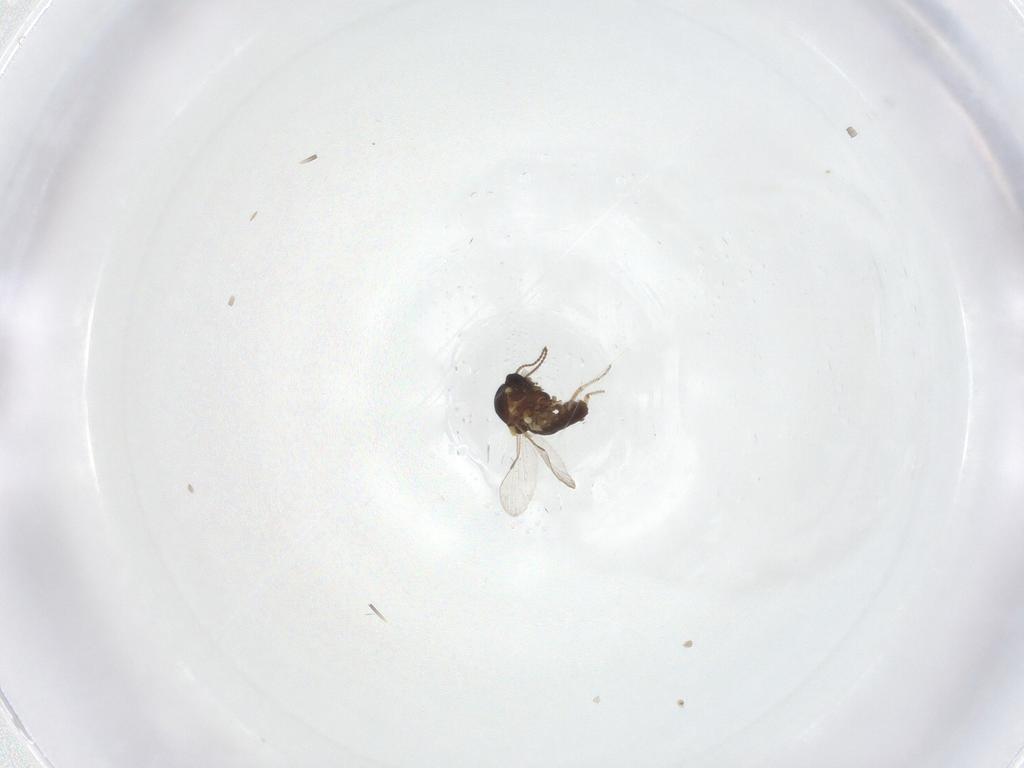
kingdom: Animalia
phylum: Arthropoda
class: Insecta
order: Diptera
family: Ceratopogonidae
